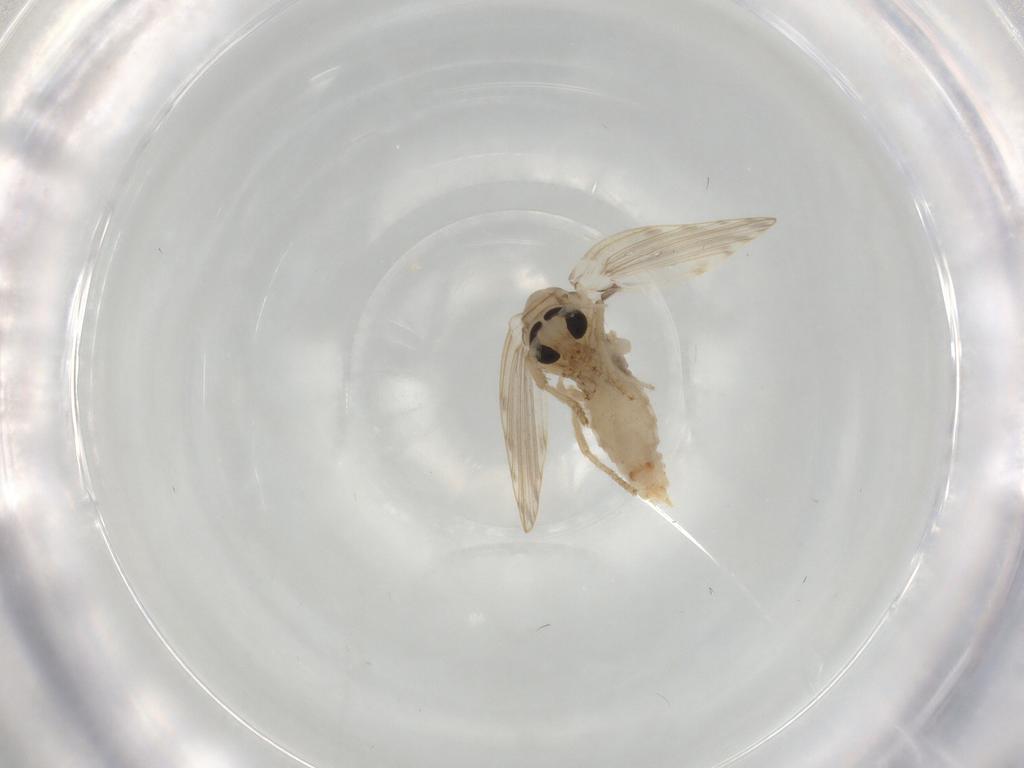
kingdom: Animalia
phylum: Arthropoda
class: Insecta
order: Diptera
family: Psychodidae
